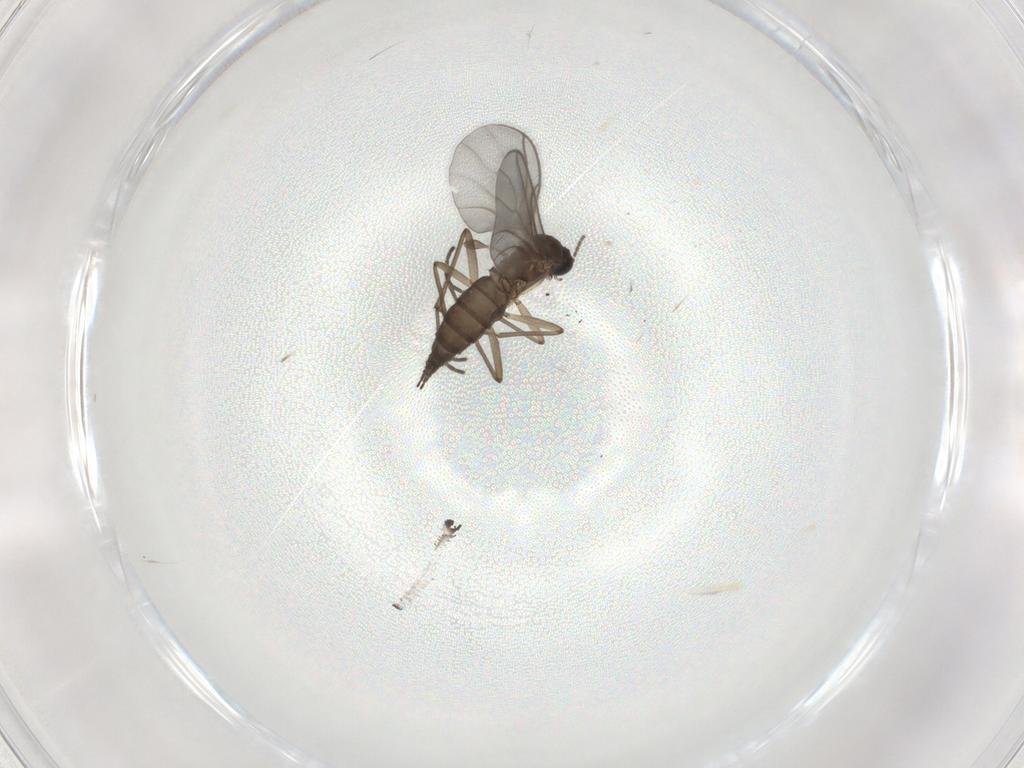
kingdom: Animalia
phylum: Arthropoda
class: Insecta
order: Diptera
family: Sciaridae
